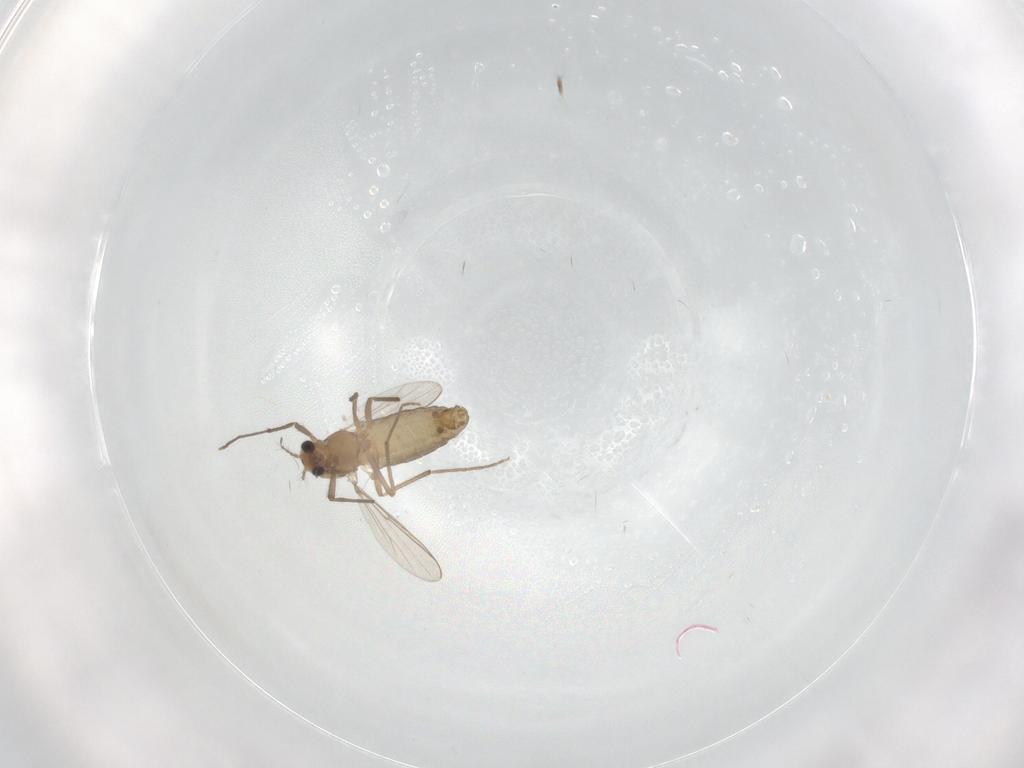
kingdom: Animalia
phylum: Arthropoda
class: Insecta
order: Diptera
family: Chironomidae
